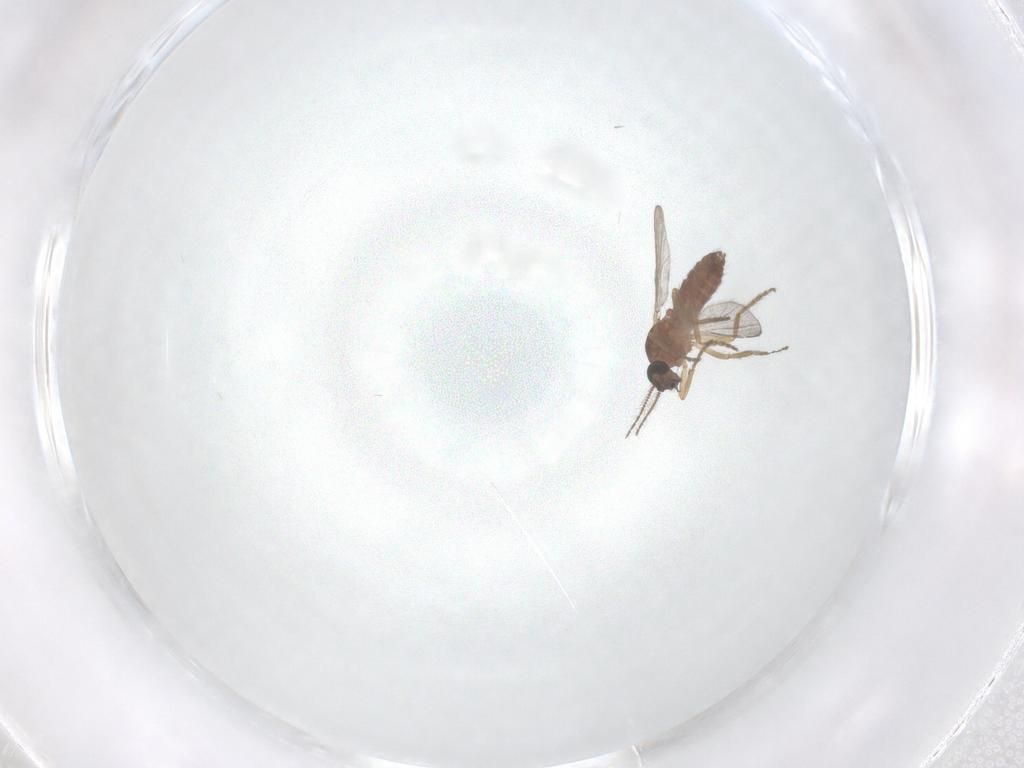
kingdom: Animalia
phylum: Arthropoda
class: Insecta
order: Diptera
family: Ceratopogonidae
